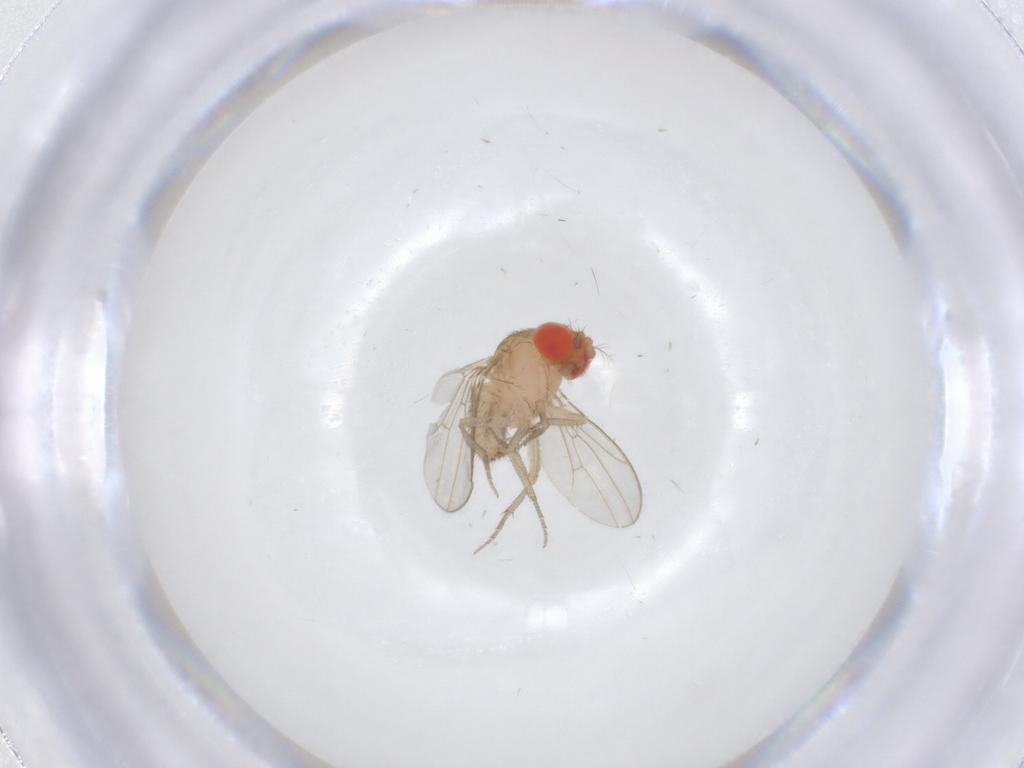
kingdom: Animalia
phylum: Arthropoda
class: Insecta
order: Diptera
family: Drosophilidae
